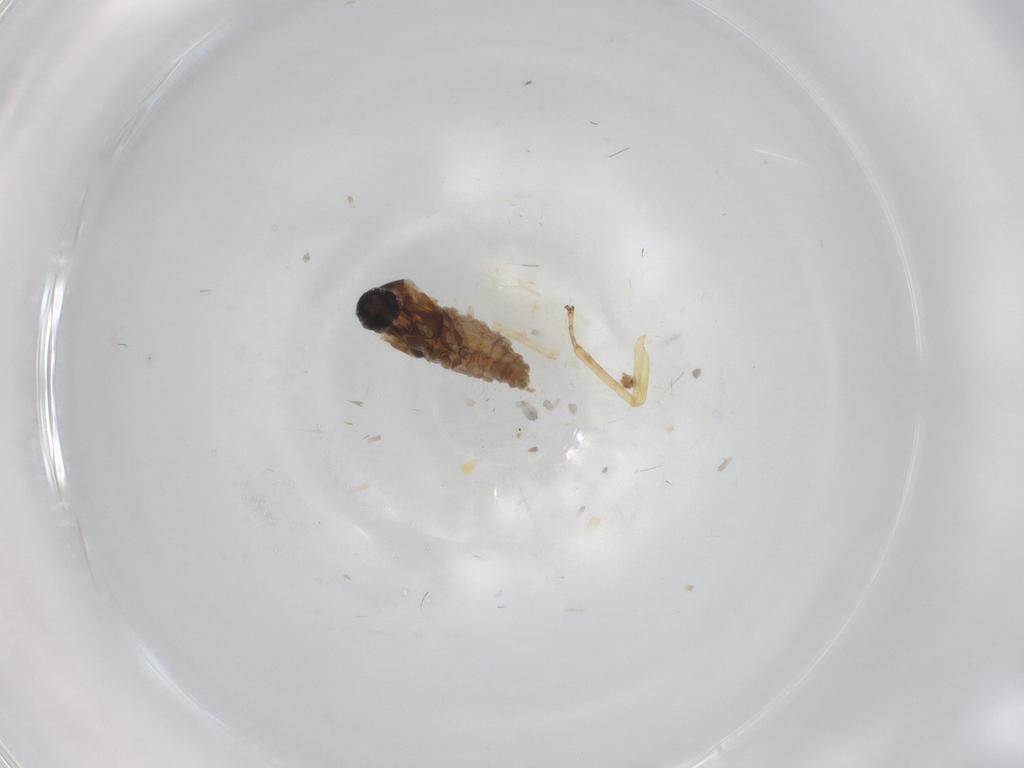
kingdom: Animalia
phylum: Arthropoda
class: Insecta
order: Diptera
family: Cecidomyiidae
